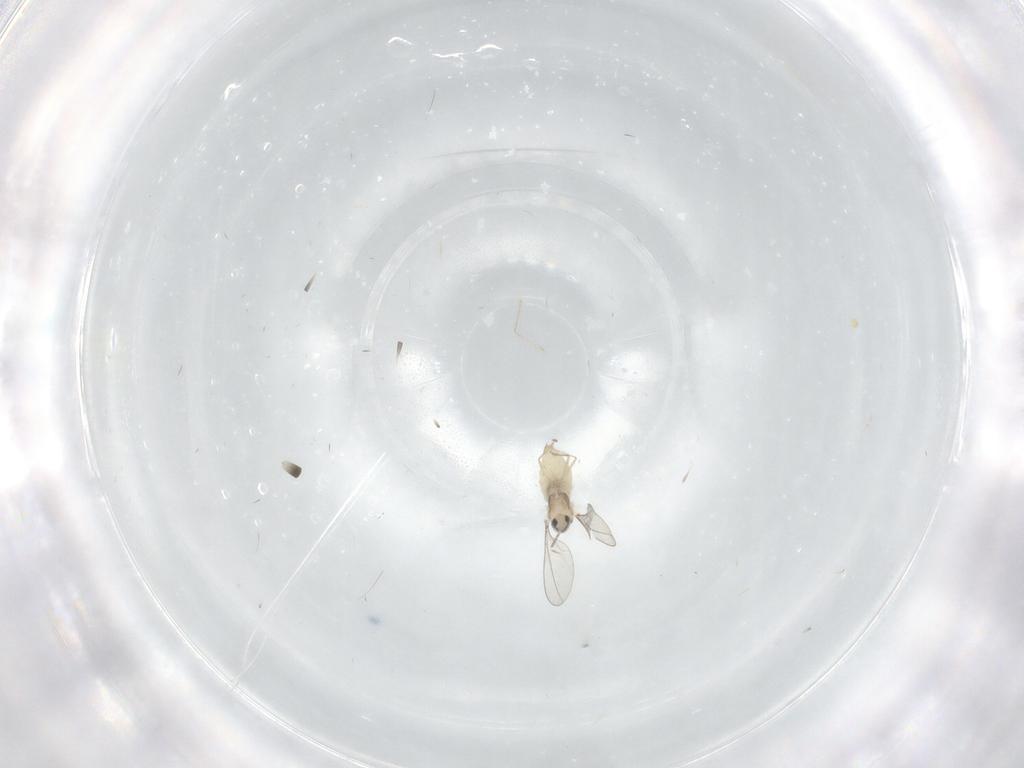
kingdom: Animalia
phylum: Arthropoda
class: Insecta
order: Diptera
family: Cecidomyiidae
